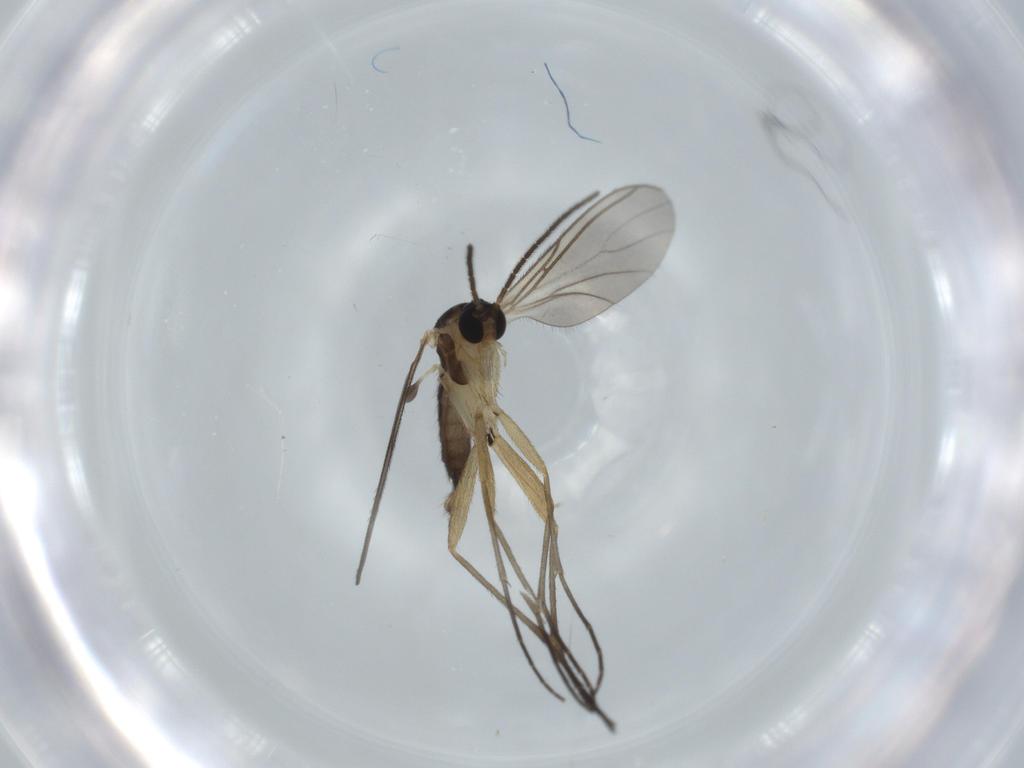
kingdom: Animalia
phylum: Arthropoda
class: Insecta
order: Diptera
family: Sciaridae
